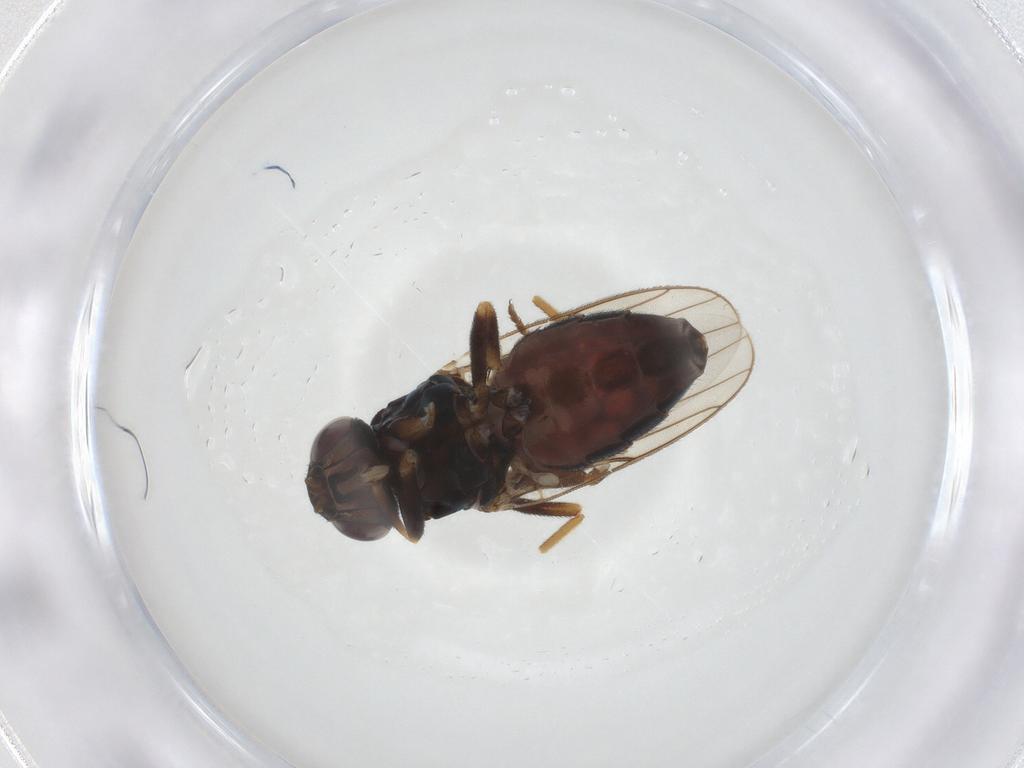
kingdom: Animalia
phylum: Arthropoda
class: Insecta
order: Diptera
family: Chloropidae
